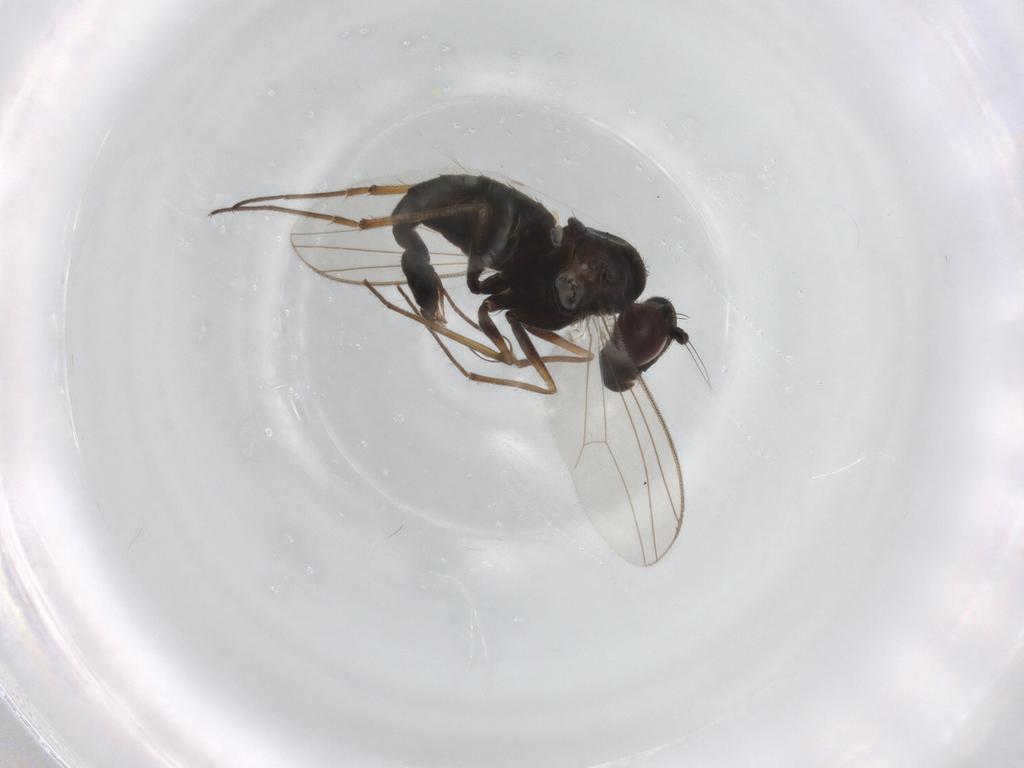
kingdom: Animalia
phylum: Arthropoda
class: Insecta
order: Diptera
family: Dolichopodidae
